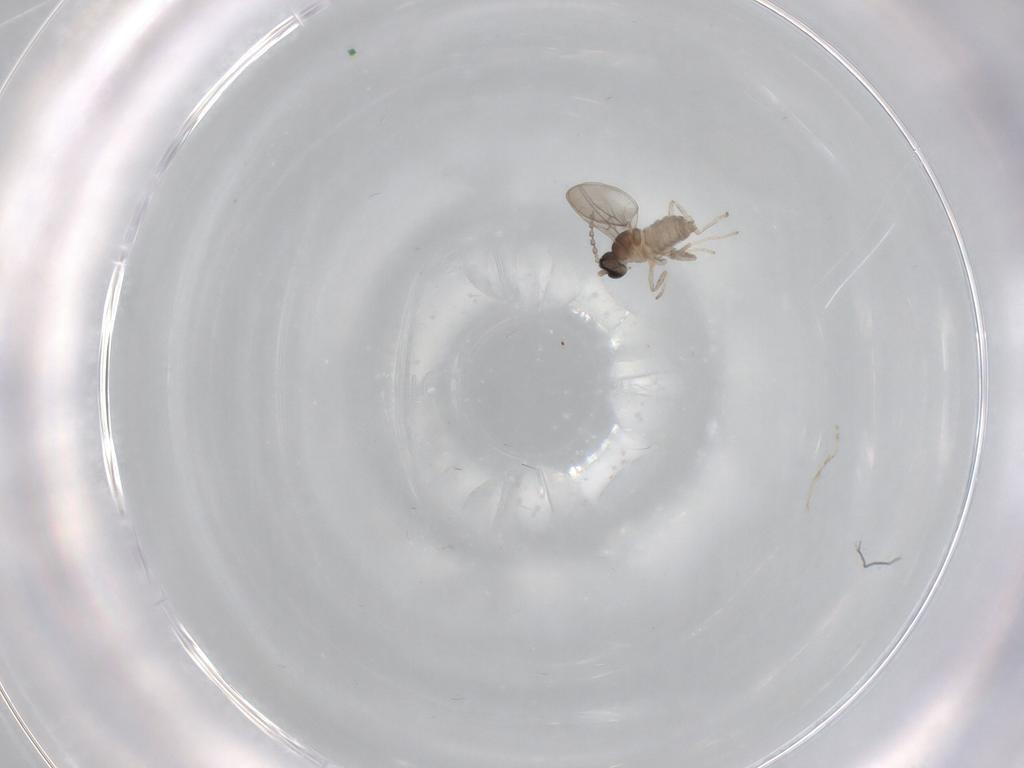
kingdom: Animalia
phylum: Arthropoda
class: Insecta
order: Diptera
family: Cecidomyiidae
